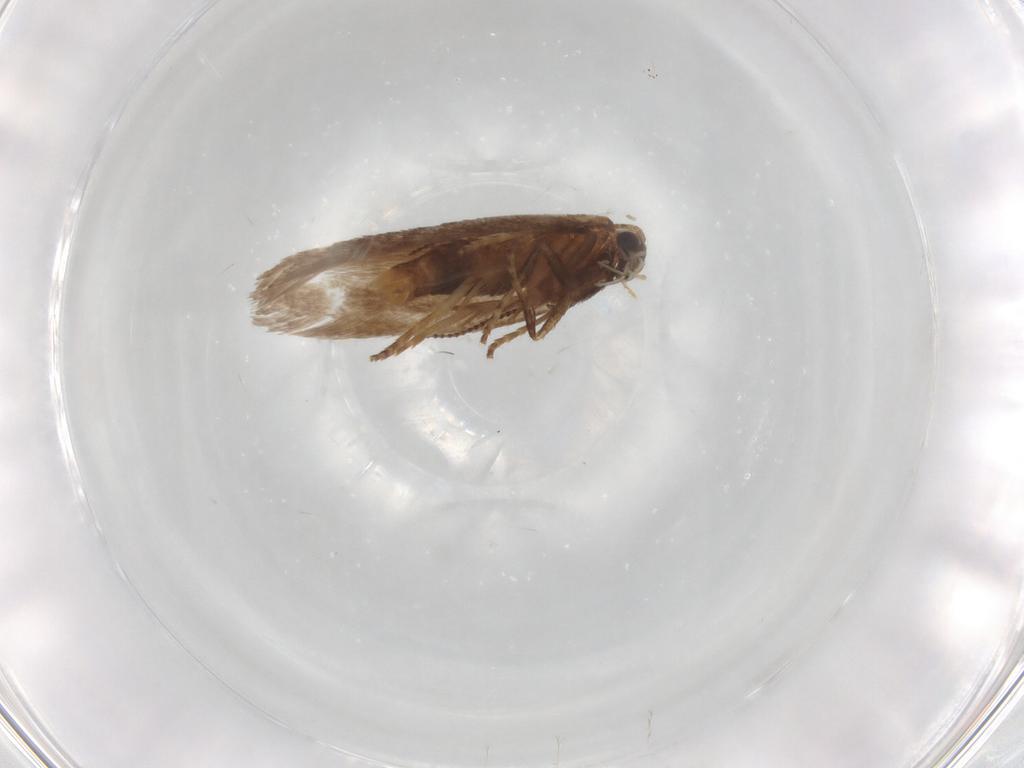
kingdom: Animalia
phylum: Arthropoda
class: Insecta
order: Lepidoptera
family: Nepticulidae
